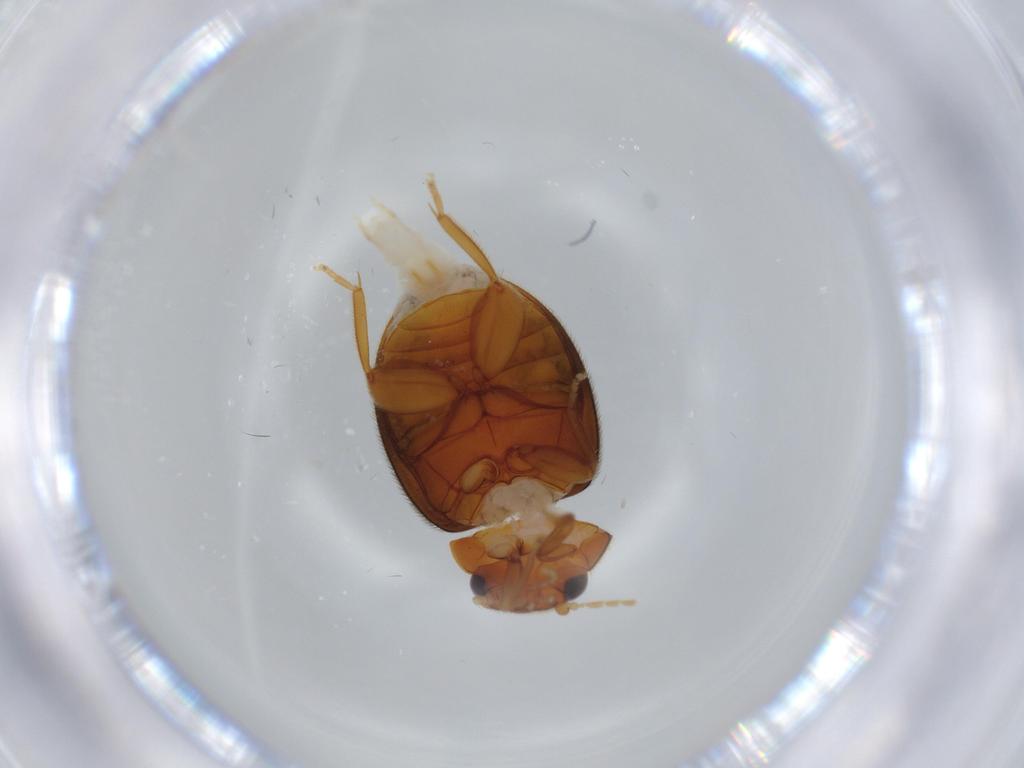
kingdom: Animalia
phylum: Arthropoda
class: Insecta
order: Coleoptera
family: Scirtidae
